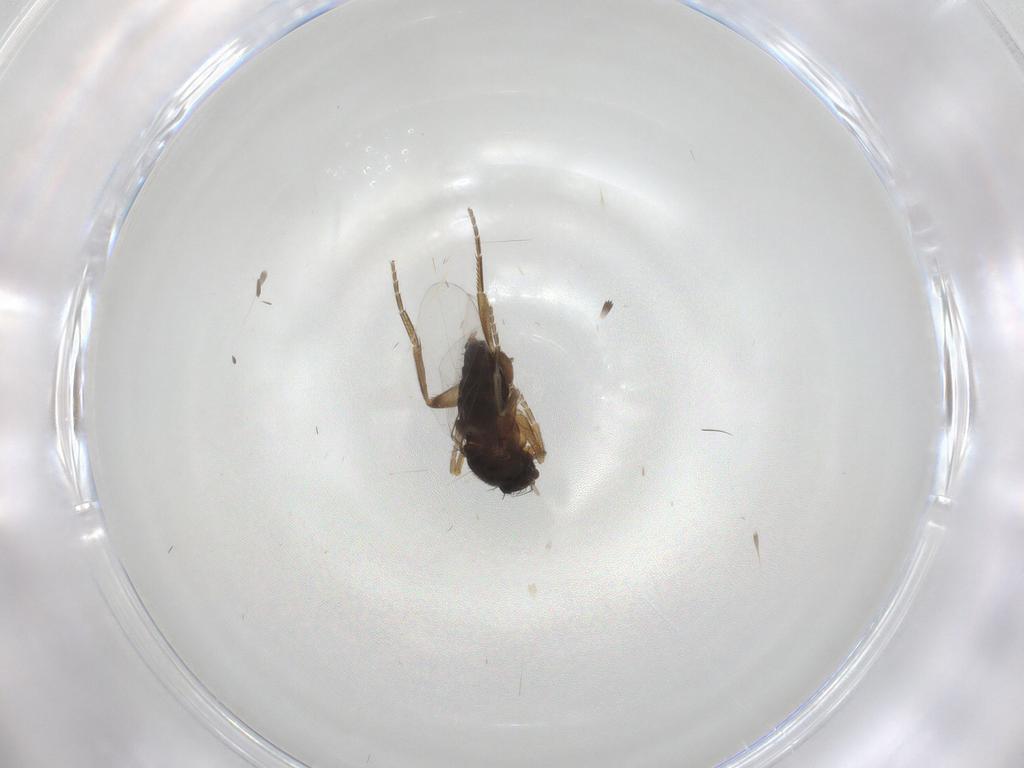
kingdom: Animalia
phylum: Arthropoda
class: Insecta
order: Diptera
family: Phoridae
